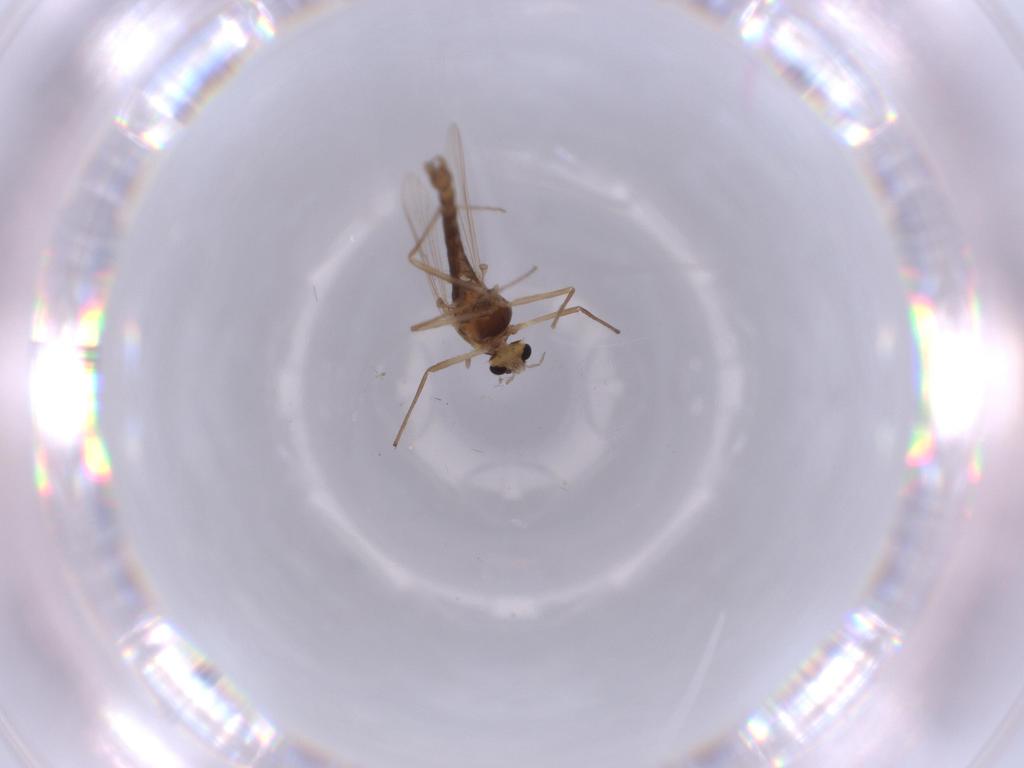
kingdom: Animalia
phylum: Arthropoda
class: Insecta
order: Diptera
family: Chironomidae
